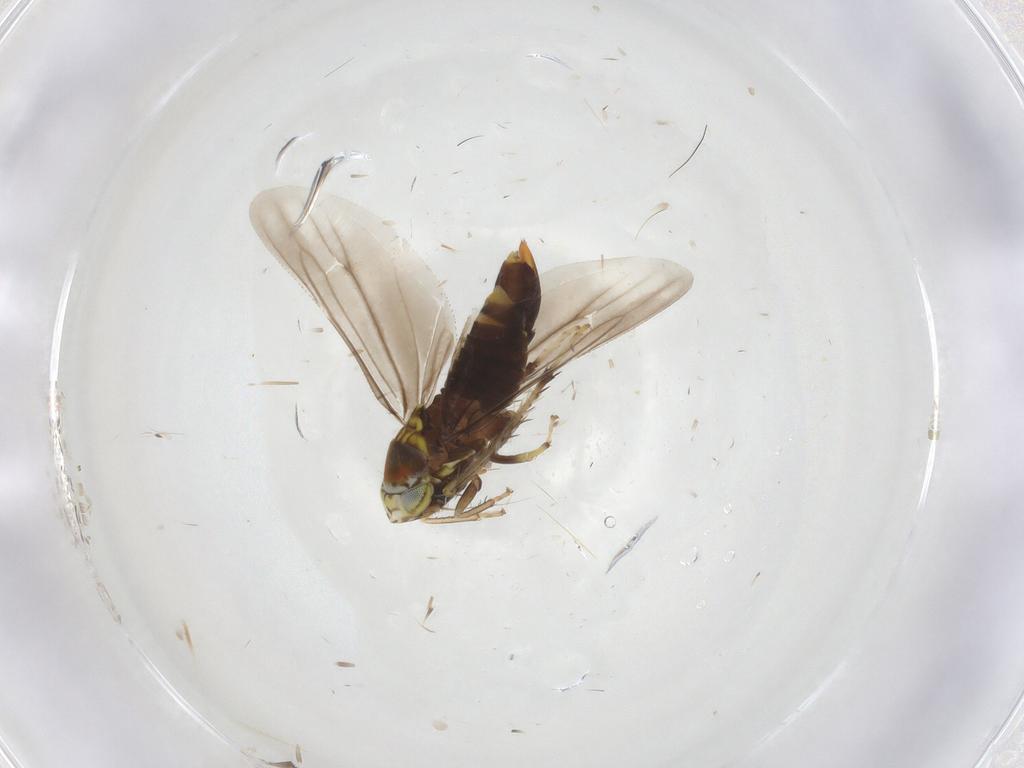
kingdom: Animalia
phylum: Arthropoda
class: Insecta
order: Hemiptera
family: Cicadellidae
